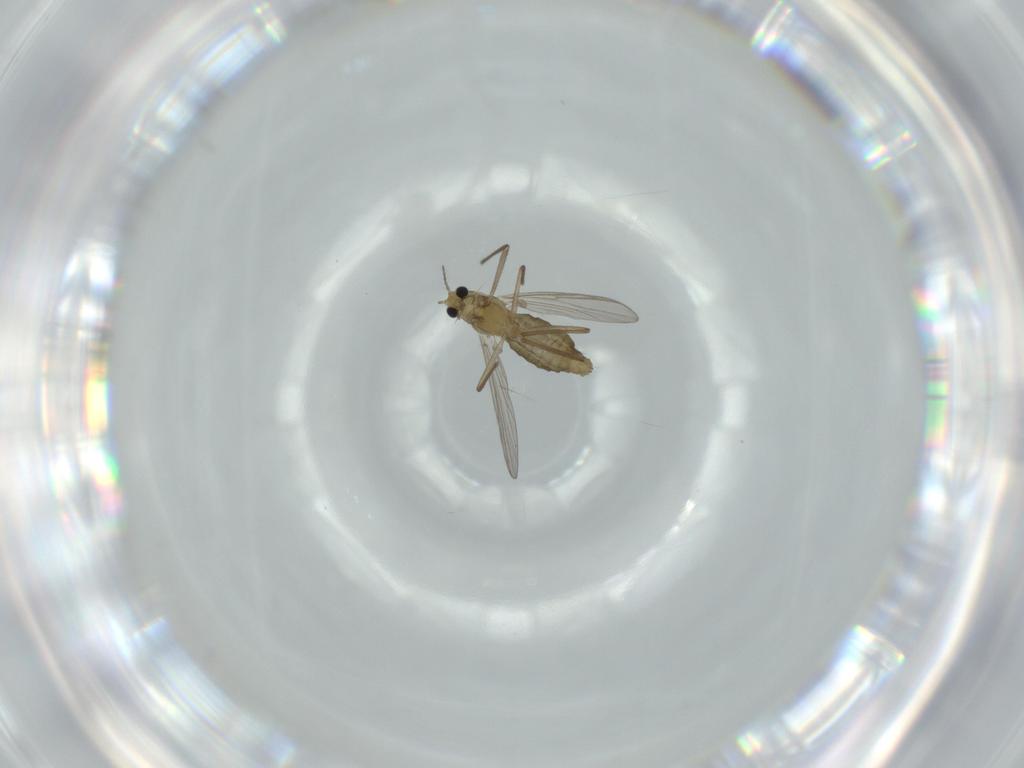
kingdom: Animalia
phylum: Arthropoda
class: Insecta
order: Diptera
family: Chironomidae
